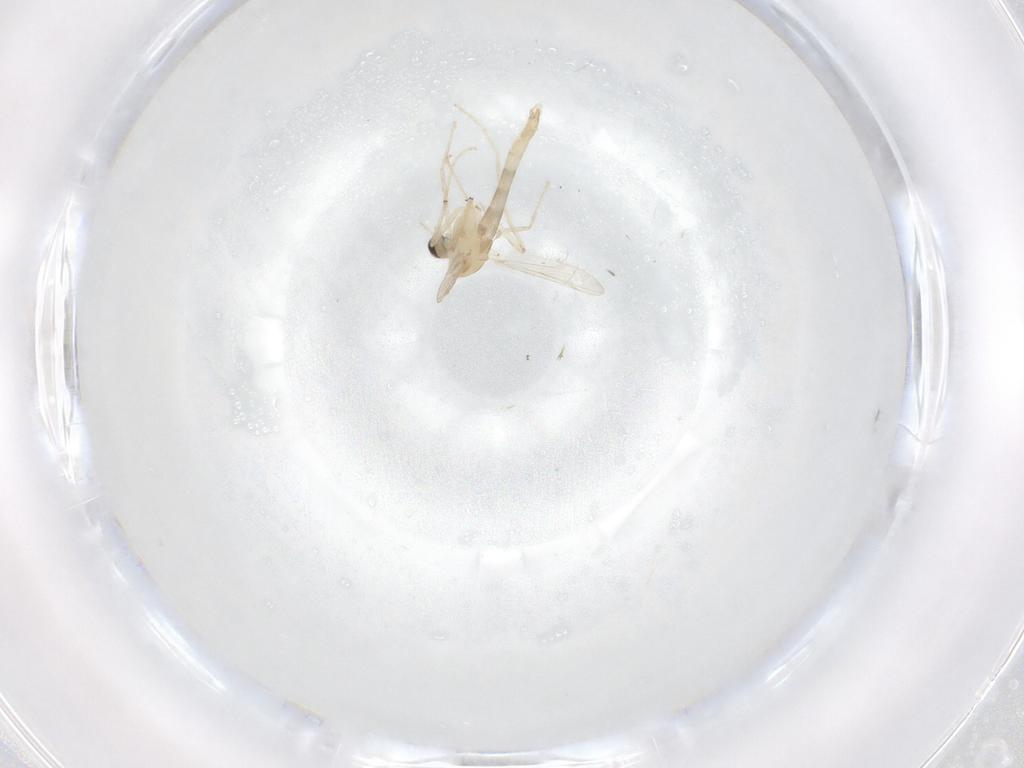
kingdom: Animalia
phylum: Arthropoda
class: Insecta
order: Diptera
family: Chironomidae
